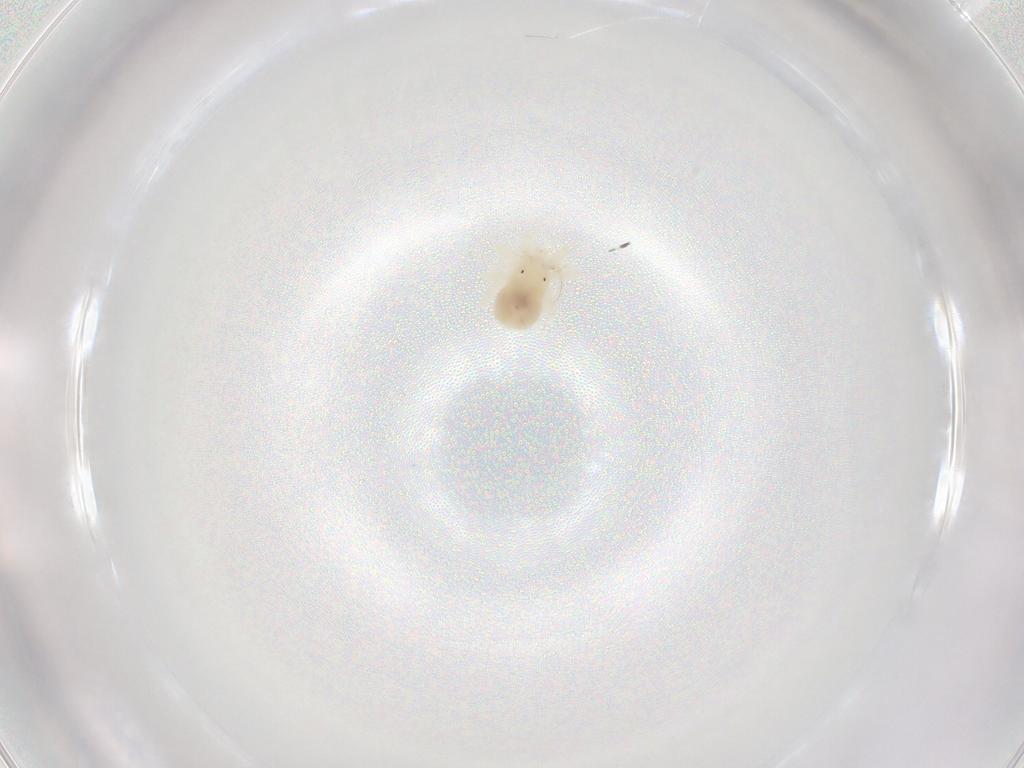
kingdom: Animalia
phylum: Arthropoda
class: Arachnida
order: Trombidiformes
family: Anystidae
